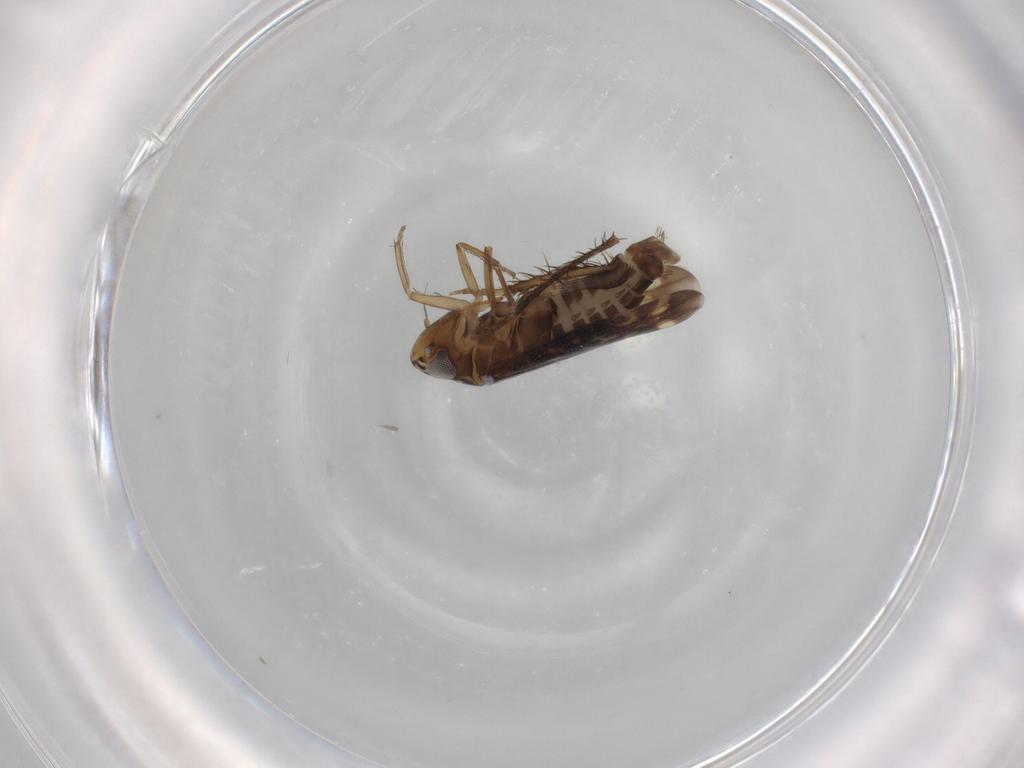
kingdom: Animalia
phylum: Arthropoda
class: Insecta
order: Hemiptera
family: Cicadellidae
